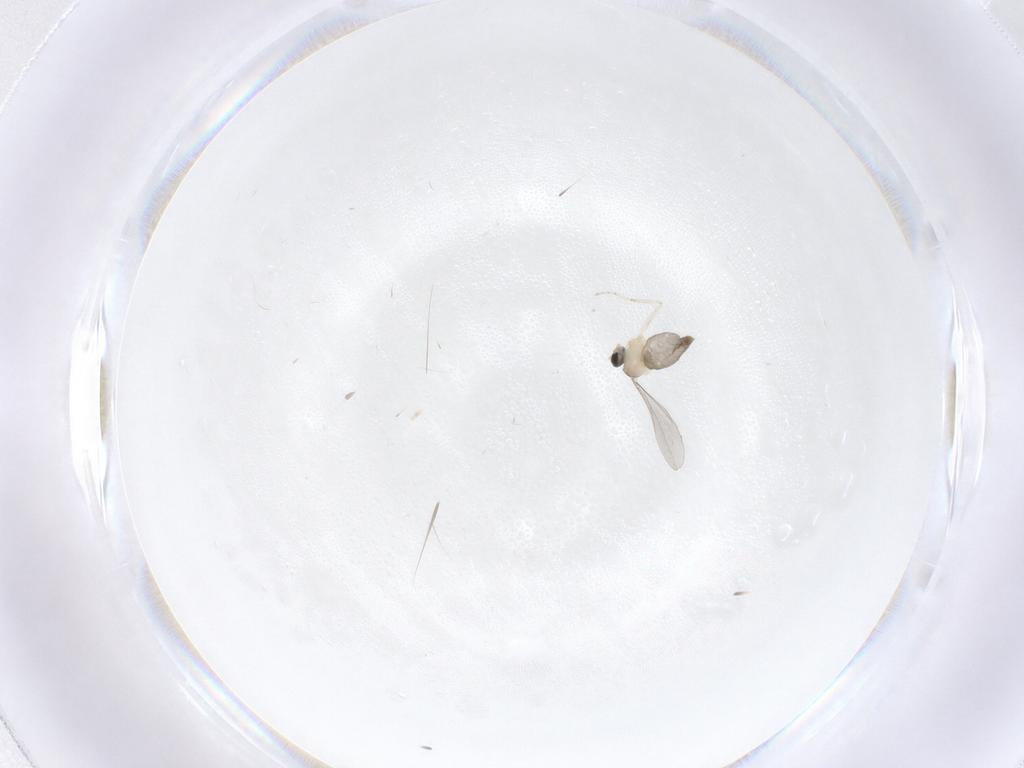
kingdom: Animalia
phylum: Arthropoda
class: Insecta
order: Diptera
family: Cecidomyiidae
